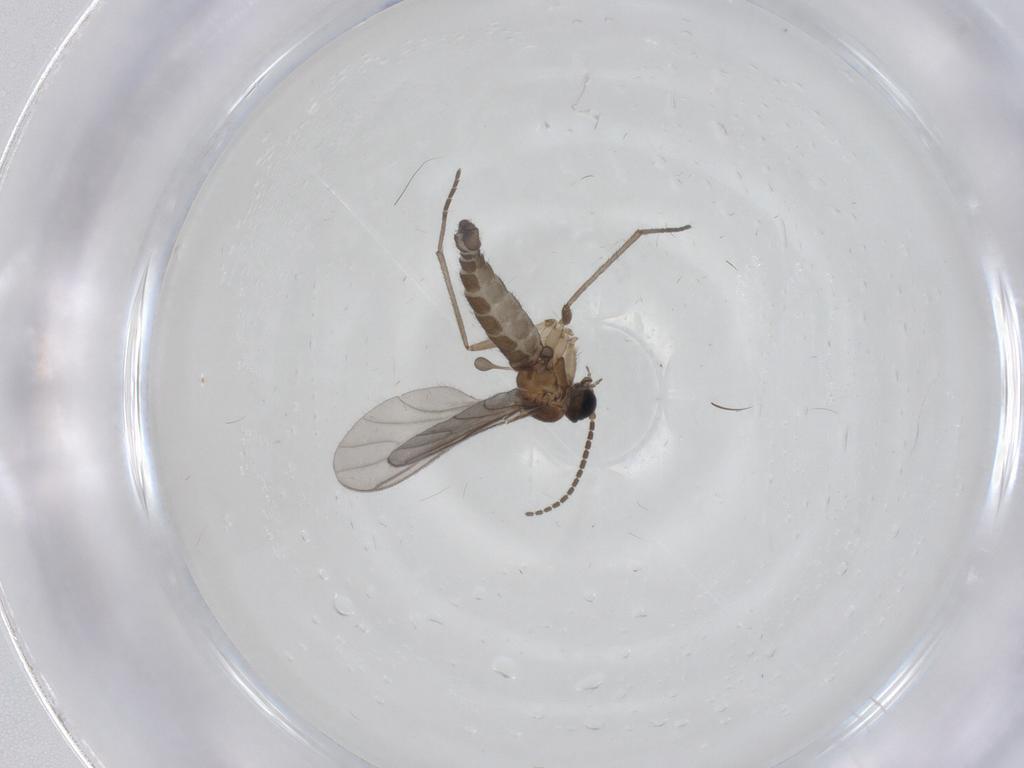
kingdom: Animalia
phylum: Arthropoda
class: Insecta
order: Diptera
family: Sciaridae
